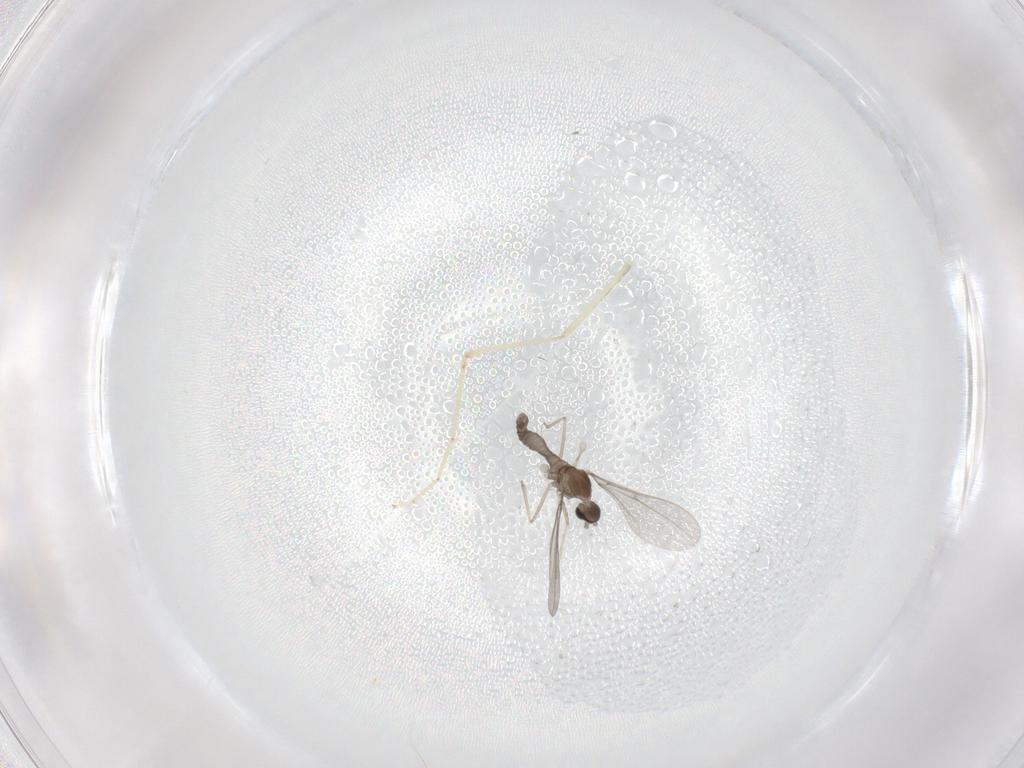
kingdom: Animalia
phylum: Arthropoda
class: Insecta
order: Diptera
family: Cecidomyiidae
